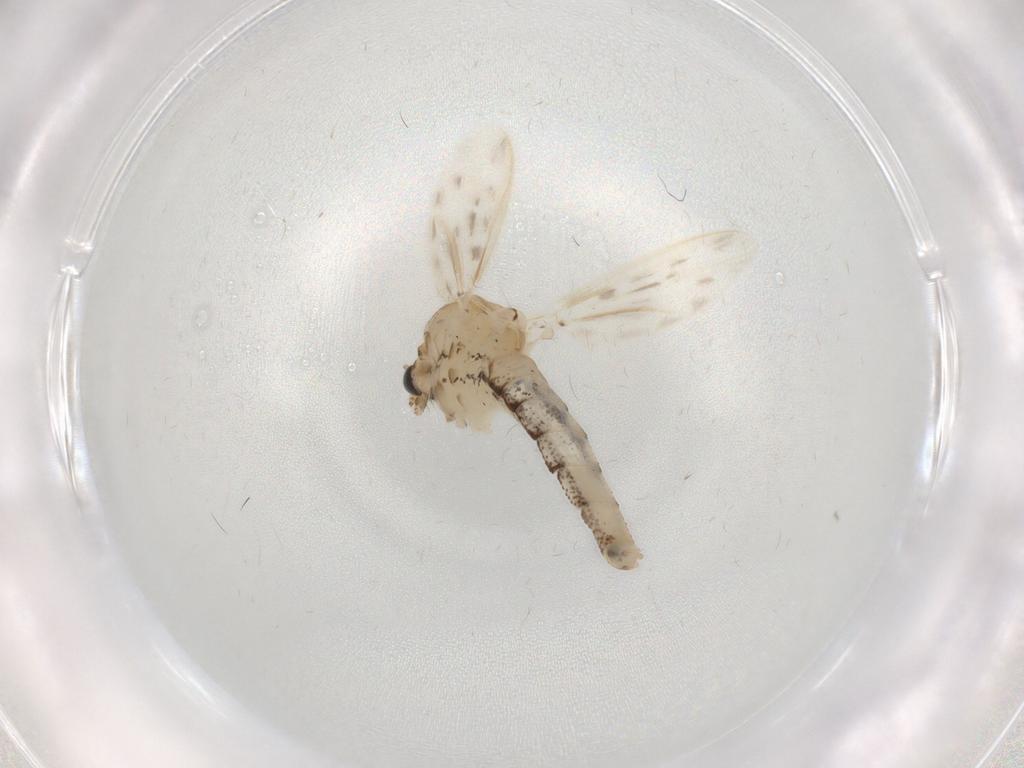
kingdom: Animalia
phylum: Arthropoda
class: Insecta
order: Diptera
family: Chaoboridae
